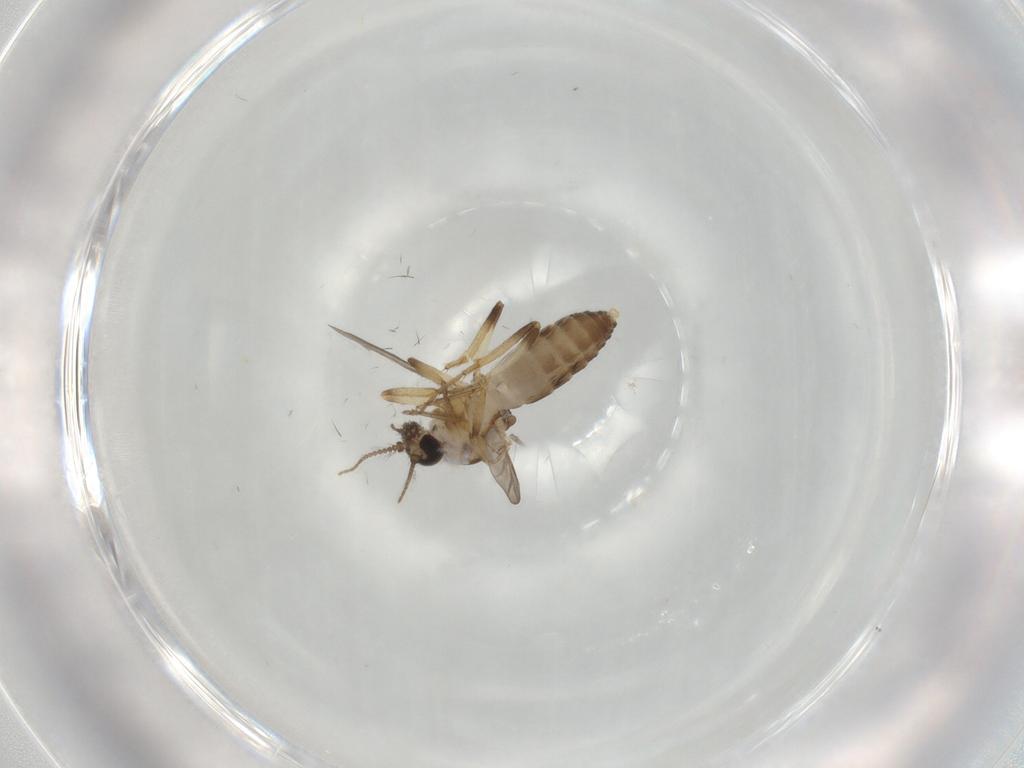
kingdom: Animalia
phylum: Arthropoda
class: Insecta
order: Diptera
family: Ceratopogonidae
